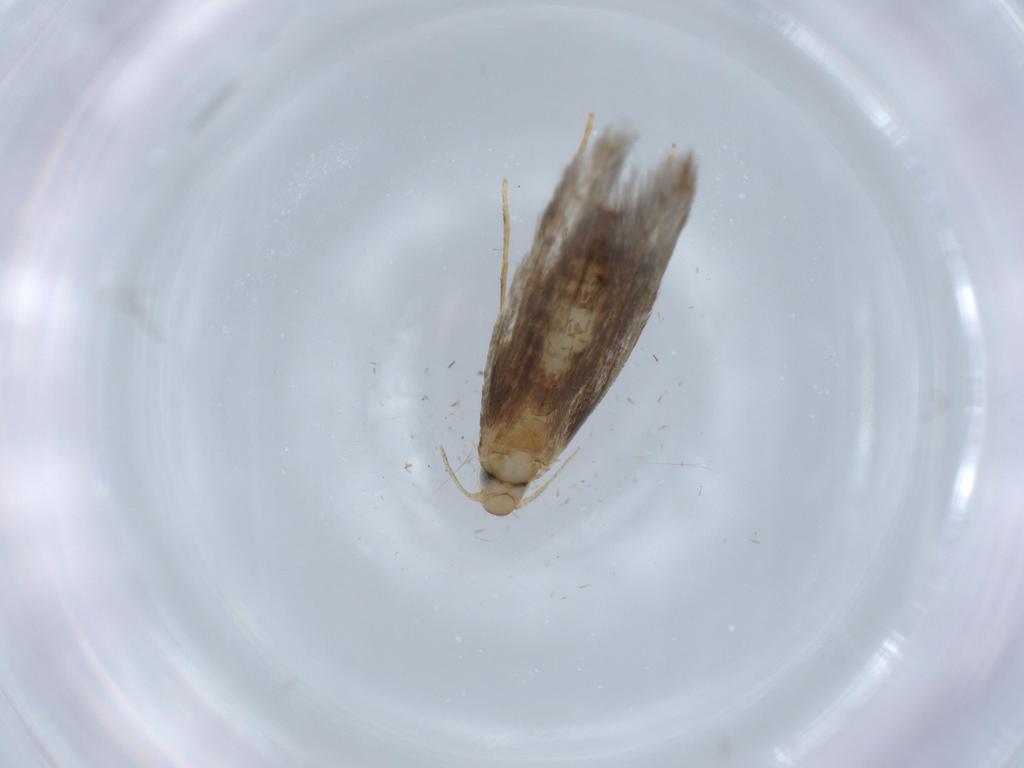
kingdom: Animalia
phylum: Arthropoda
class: Insecta
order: Lepidoptera
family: Tischeriidae
